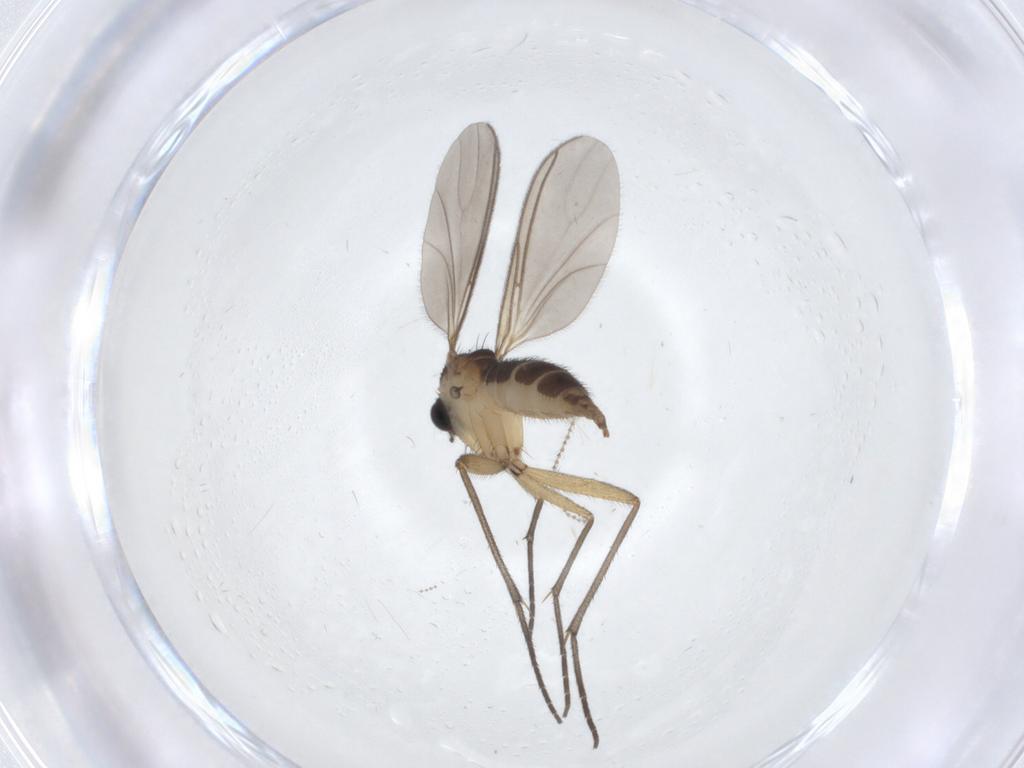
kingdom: Animalia
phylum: Arthropoda
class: Insecta
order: Diptera
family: Sciaridae
